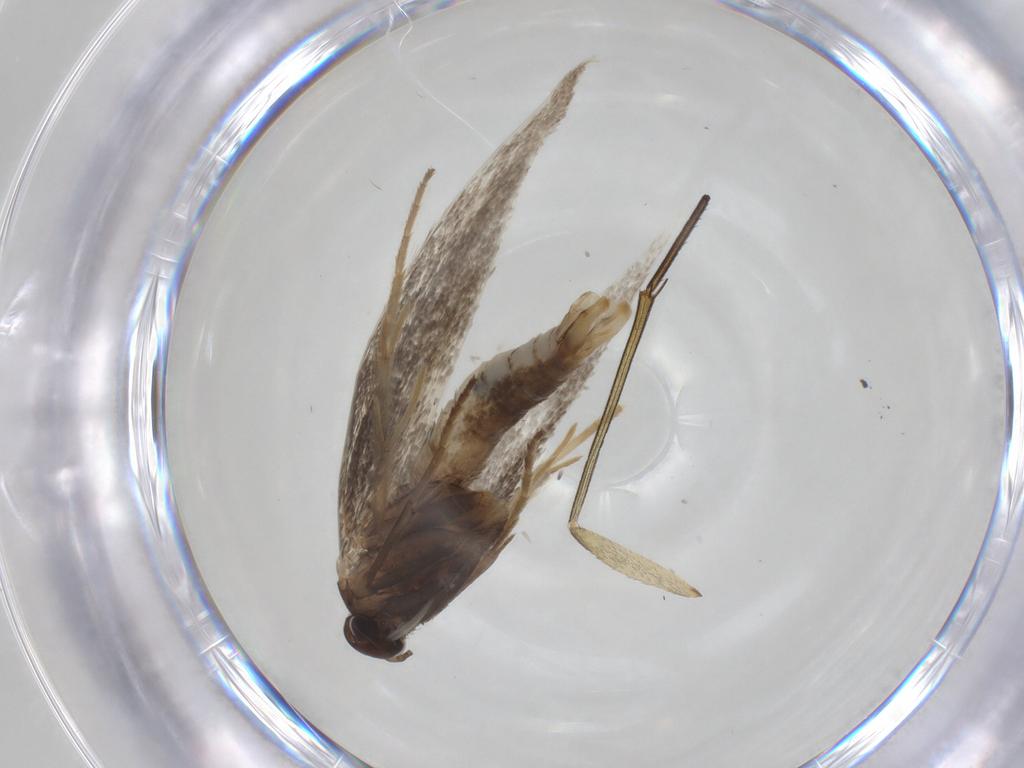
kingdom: Animalia
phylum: Arthropoda
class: Insecta
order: Lepidoptera
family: Elachistidae
